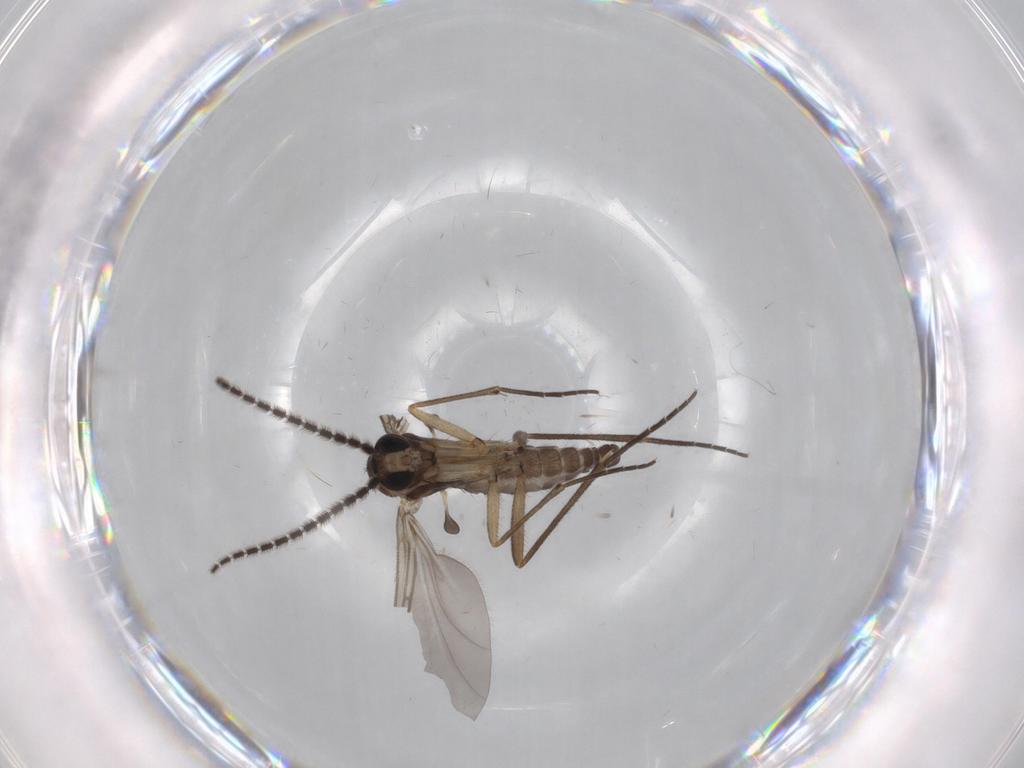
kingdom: Animalia
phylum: Arthropoda
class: Insecta
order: Diptera
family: Sciaridae
